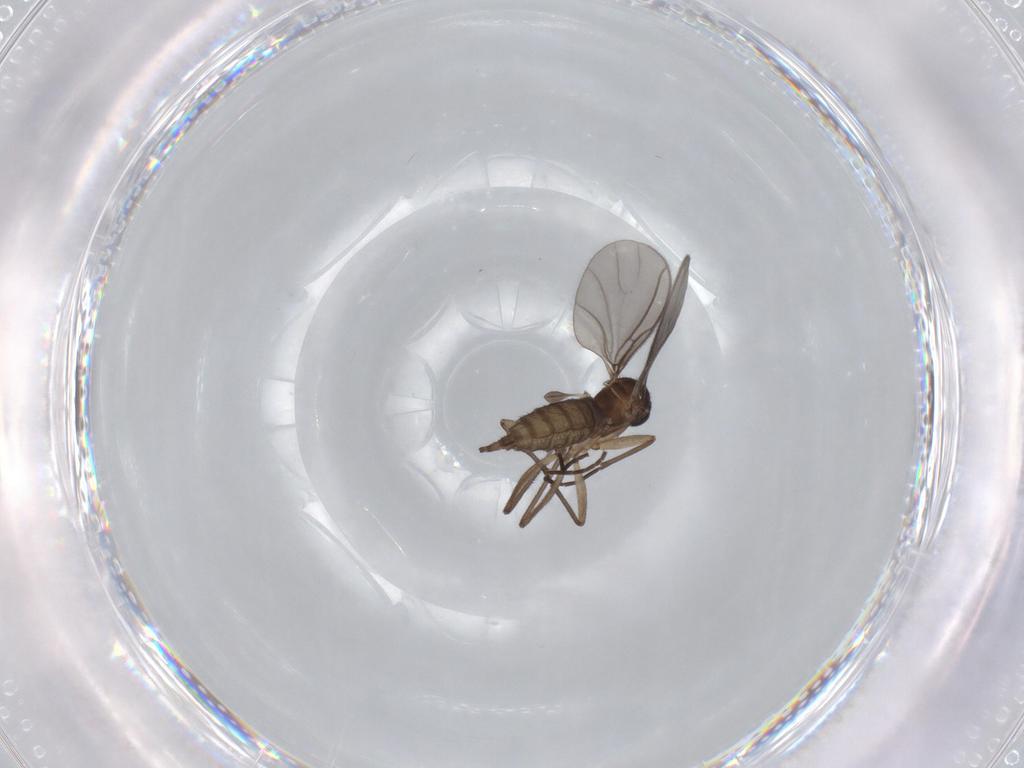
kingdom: Animalia
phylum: Arthropoda
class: Insecta
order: Diptera
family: Sciaridae
